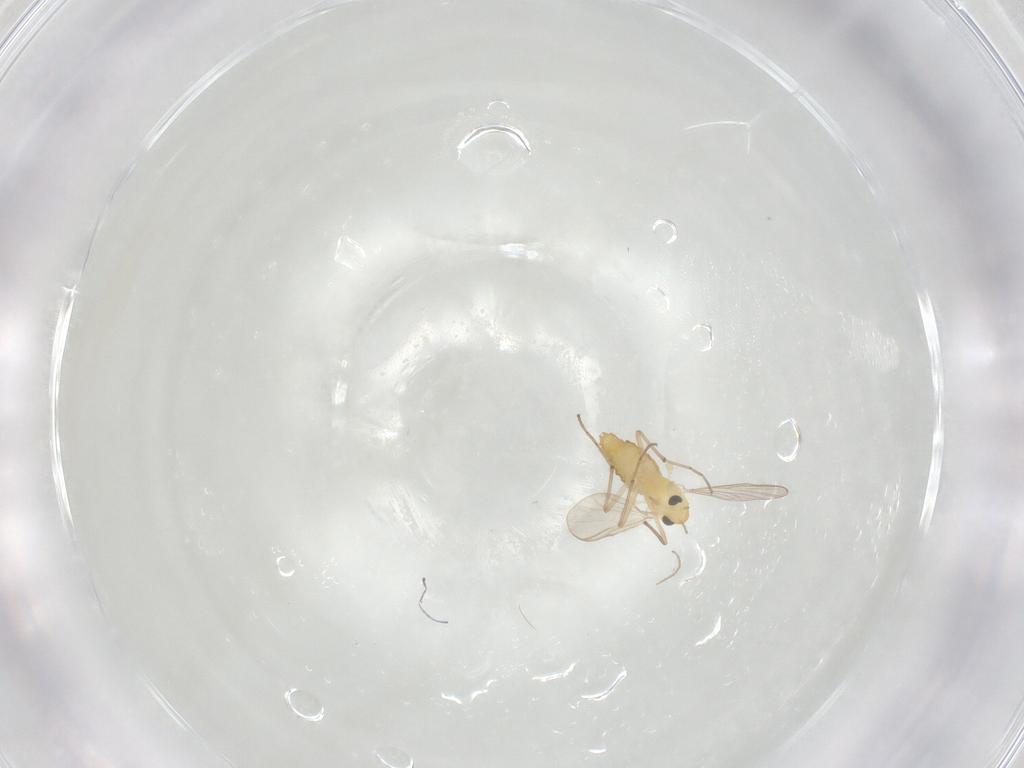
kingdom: Animalia
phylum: Arthropoda
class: Insecta
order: Diptera
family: Chironomidae
